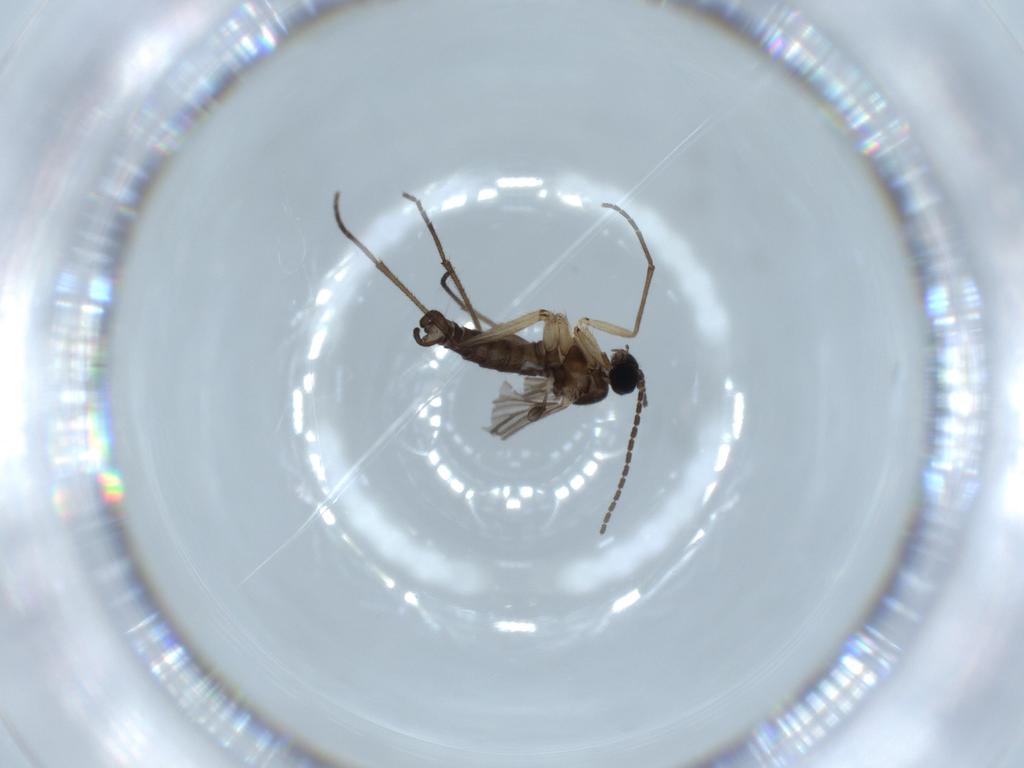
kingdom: Animalia
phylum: Arthropoda
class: Insecta
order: Diptera
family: Sciaridae
